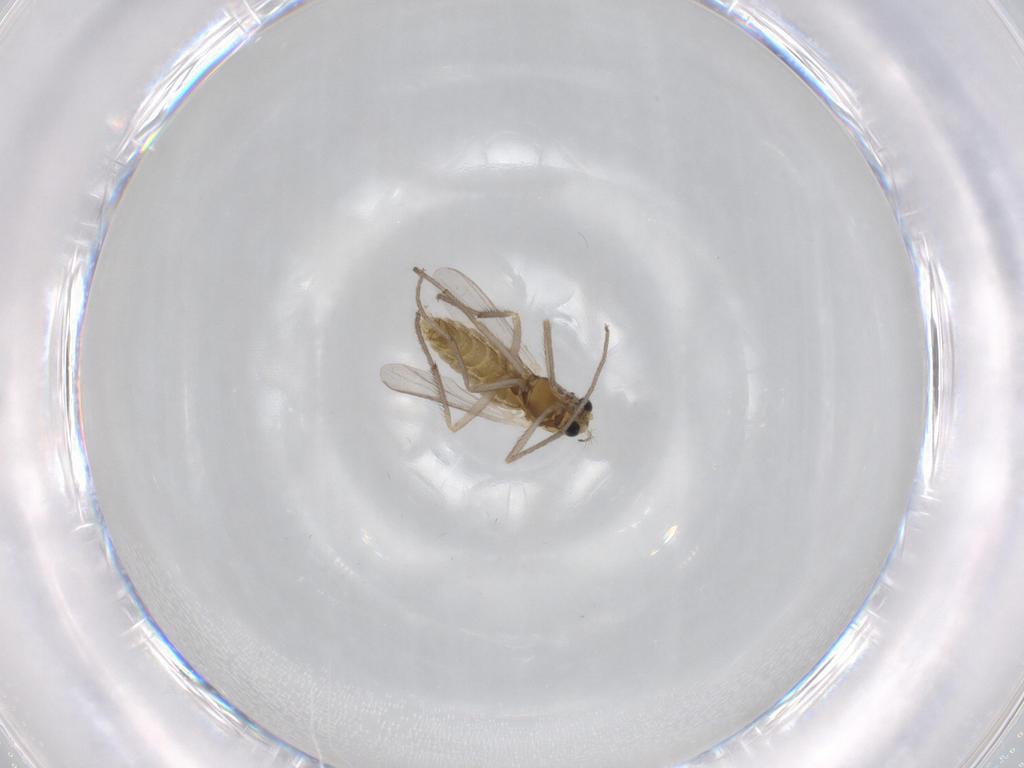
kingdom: Animalia
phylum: Arthropoda
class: Insecta
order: Diptera
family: Chironomidae
